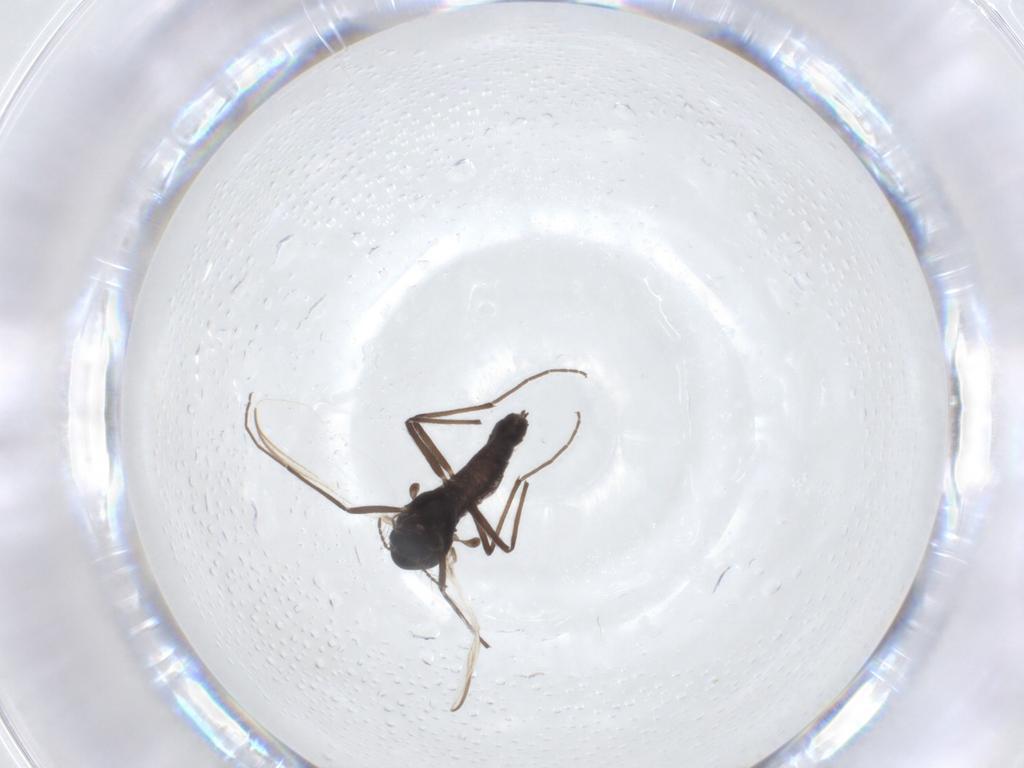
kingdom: Animalia
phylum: Arthropoda
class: Insecta
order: Diptera
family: Chironomidae
